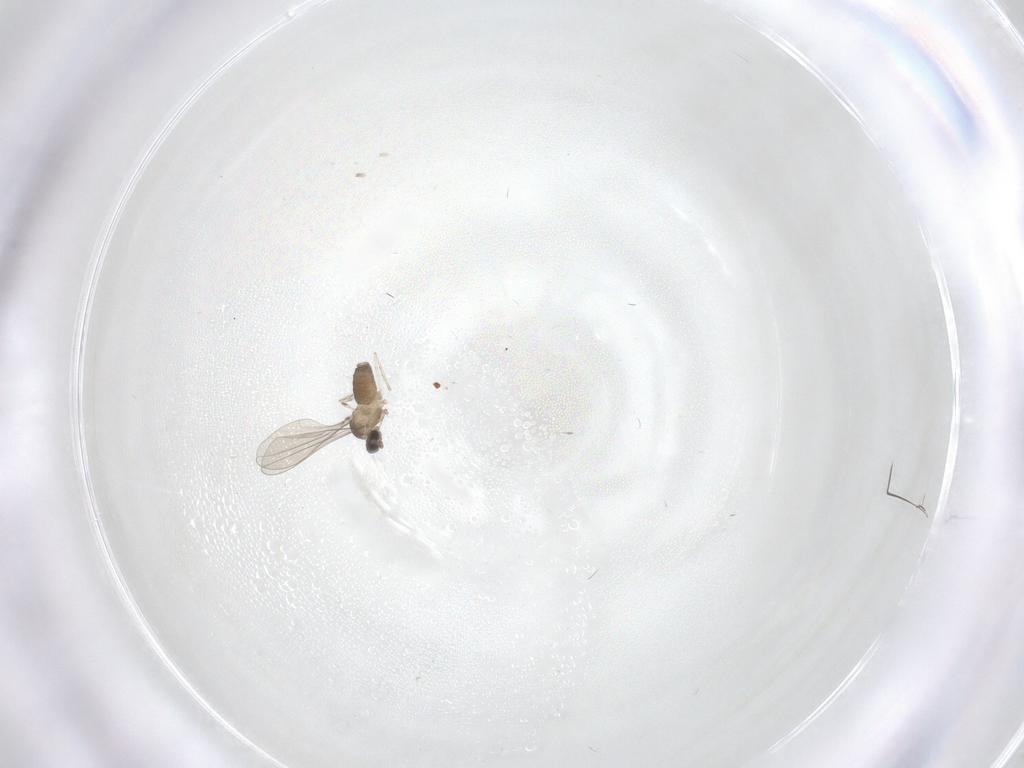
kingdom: Animalia
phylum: Arthropoda
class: Insecta
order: Diptera
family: Cecidomyiidae
